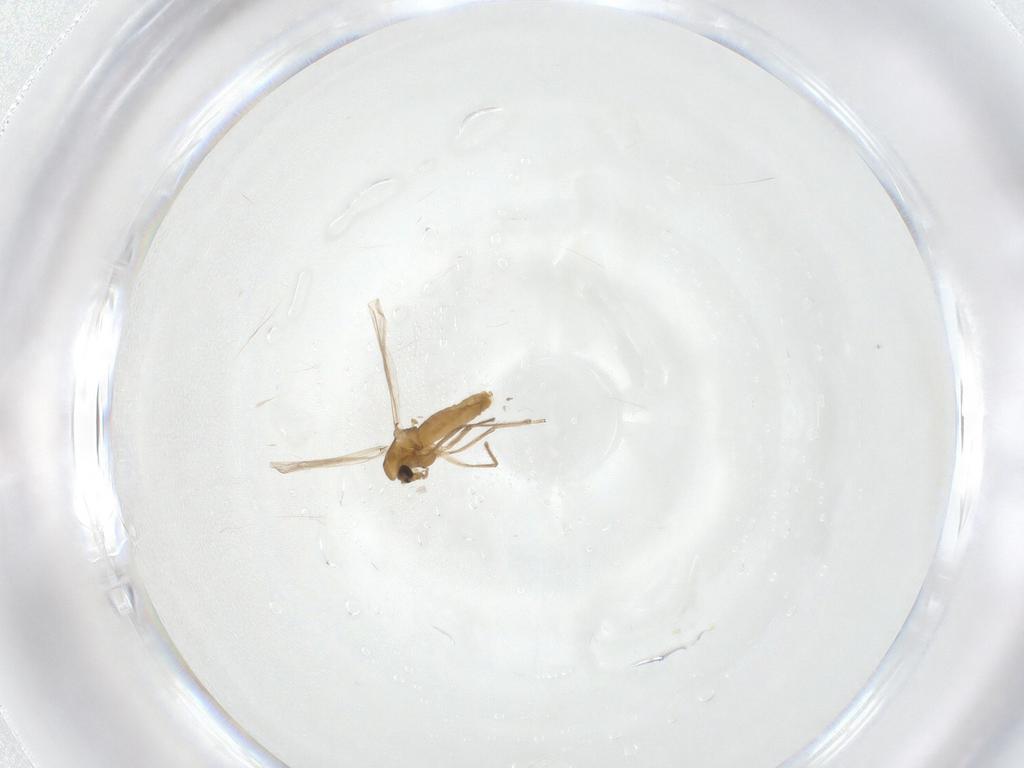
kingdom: Animalia
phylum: Arthropoda
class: Insecta
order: Diptera
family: Chironomidae
